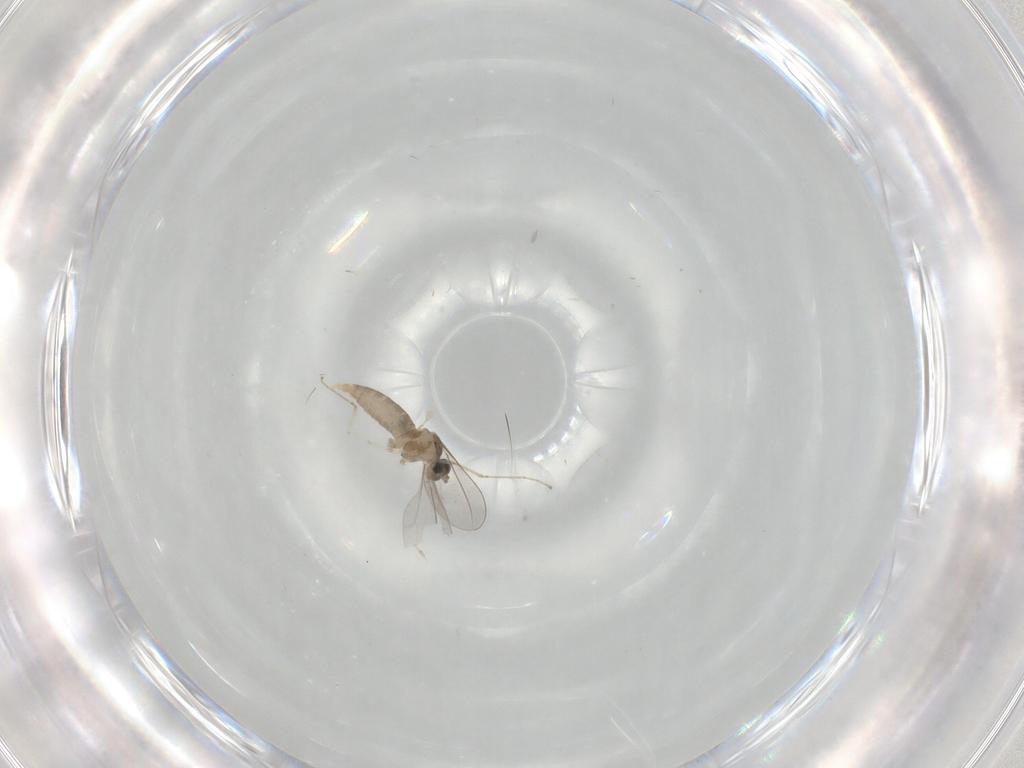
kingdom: Animalia
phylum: Arthropoda
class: Insecta
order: Diptera
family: Cecidomyiidae
